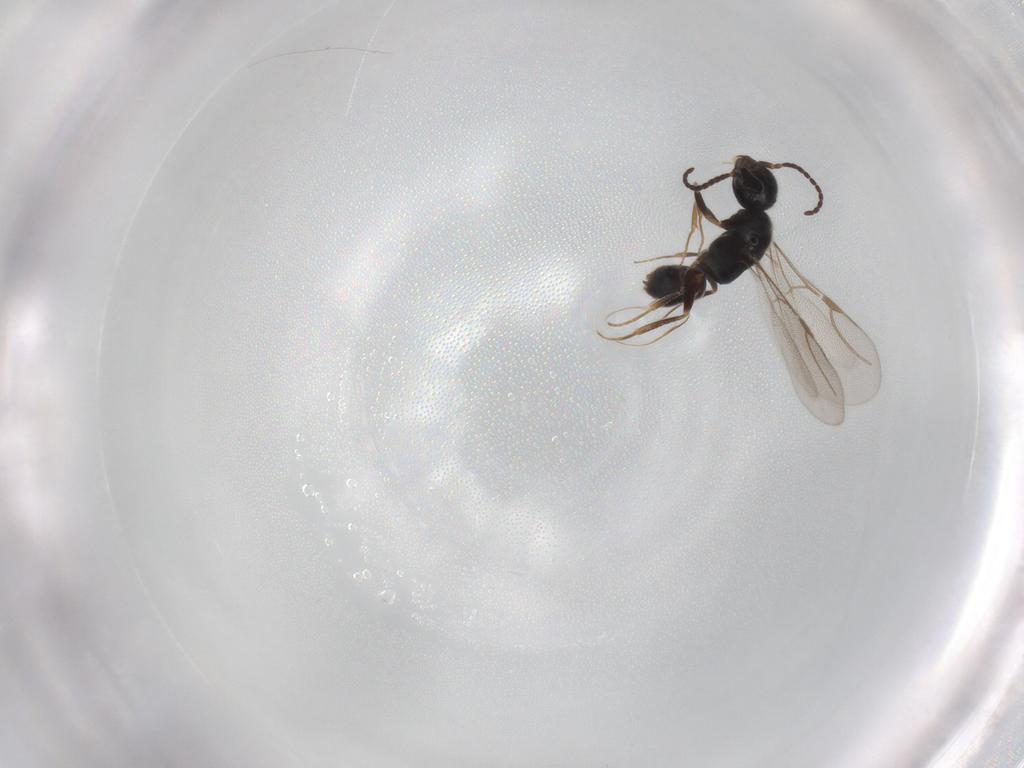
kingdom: Animalia
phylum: Arthropoda
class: Insecta
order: Hymenoptera
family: Bethylidae
